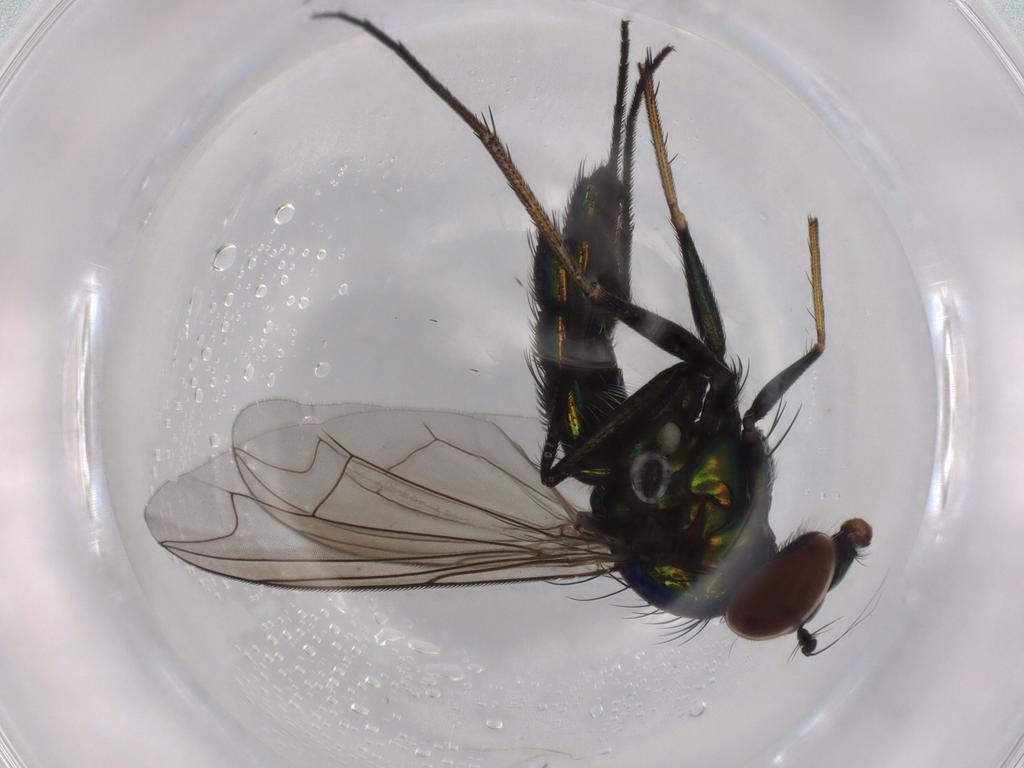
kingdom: Animalia
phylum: Arthropoda
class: Insecta
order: Diptera
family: Dolichopodidae
